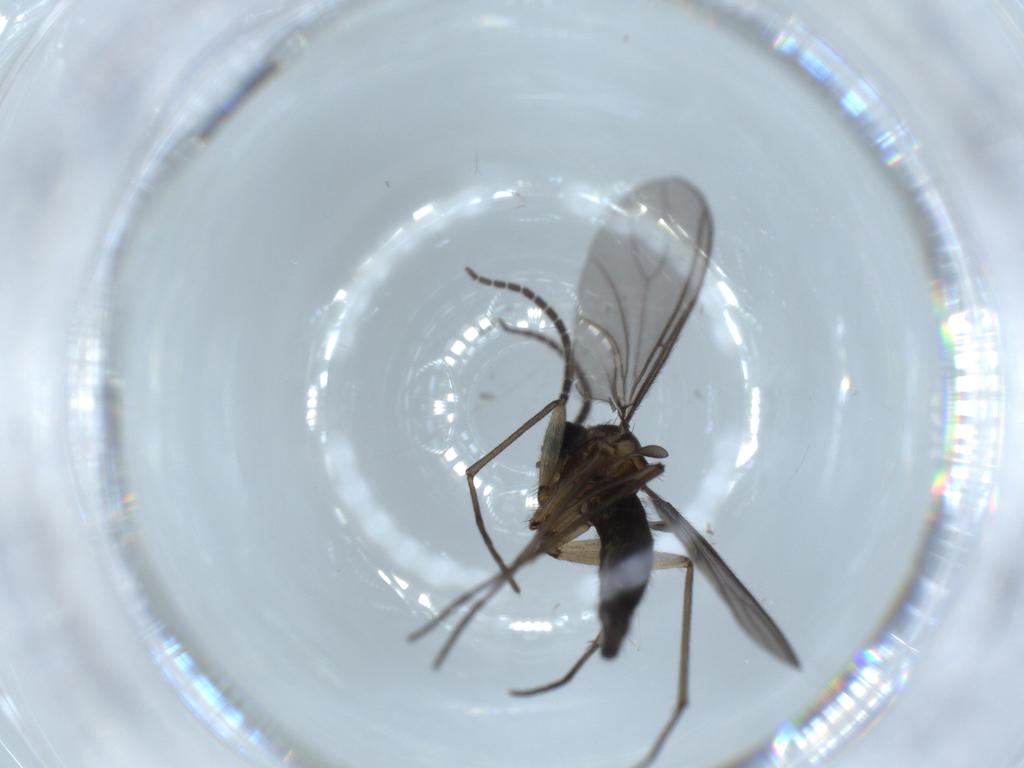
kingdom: Animalia
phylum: Arthropoda
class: Insecta
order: Diptera
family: Sciaridae
